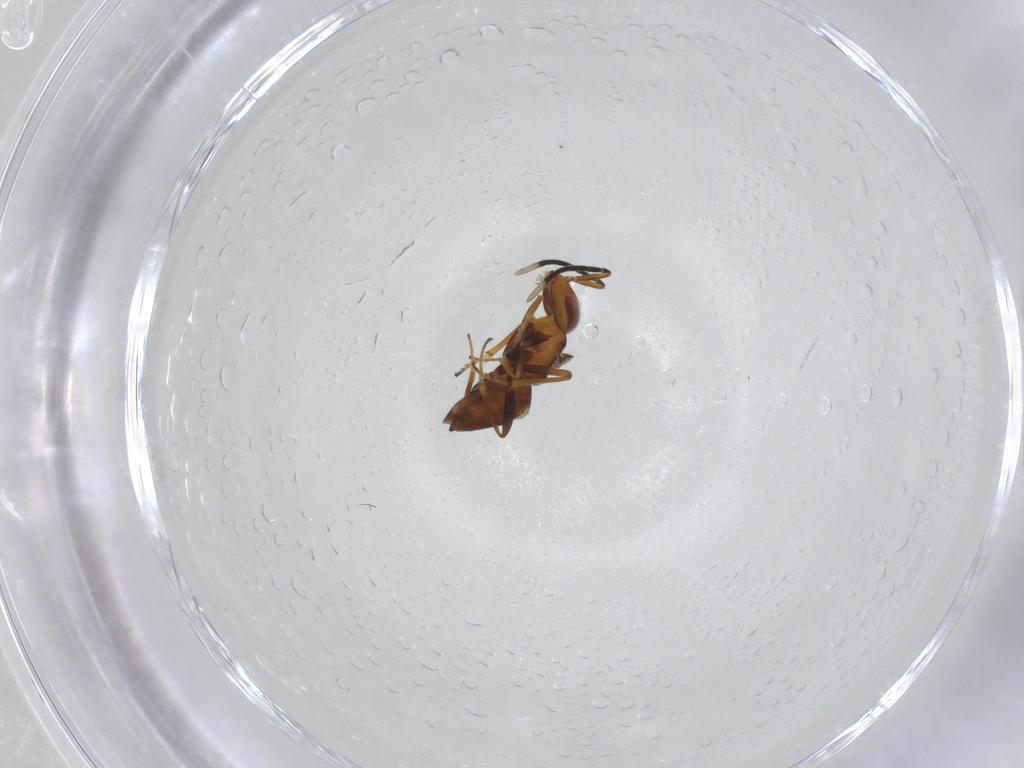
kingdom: Animalia
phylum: Arthropoda
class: Insecta
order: Hymenoptera
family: Encyrtidae
